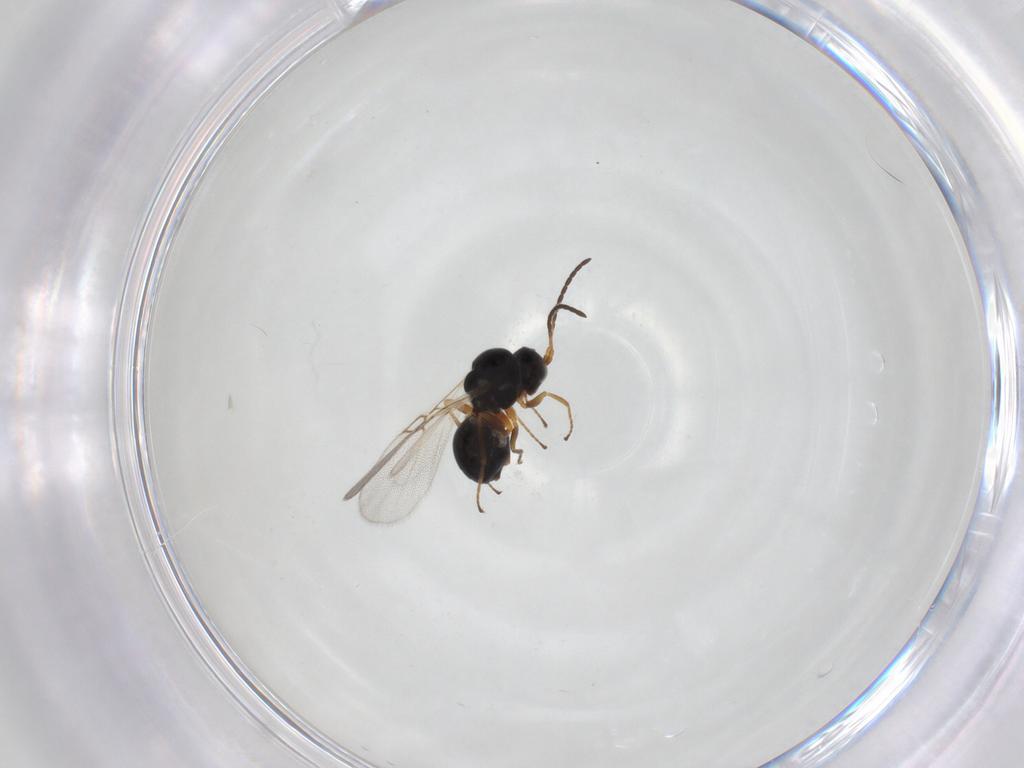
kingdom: Animalia
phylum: Arthropoda
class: Insecta
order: Hymenoptera
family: Figitidae
